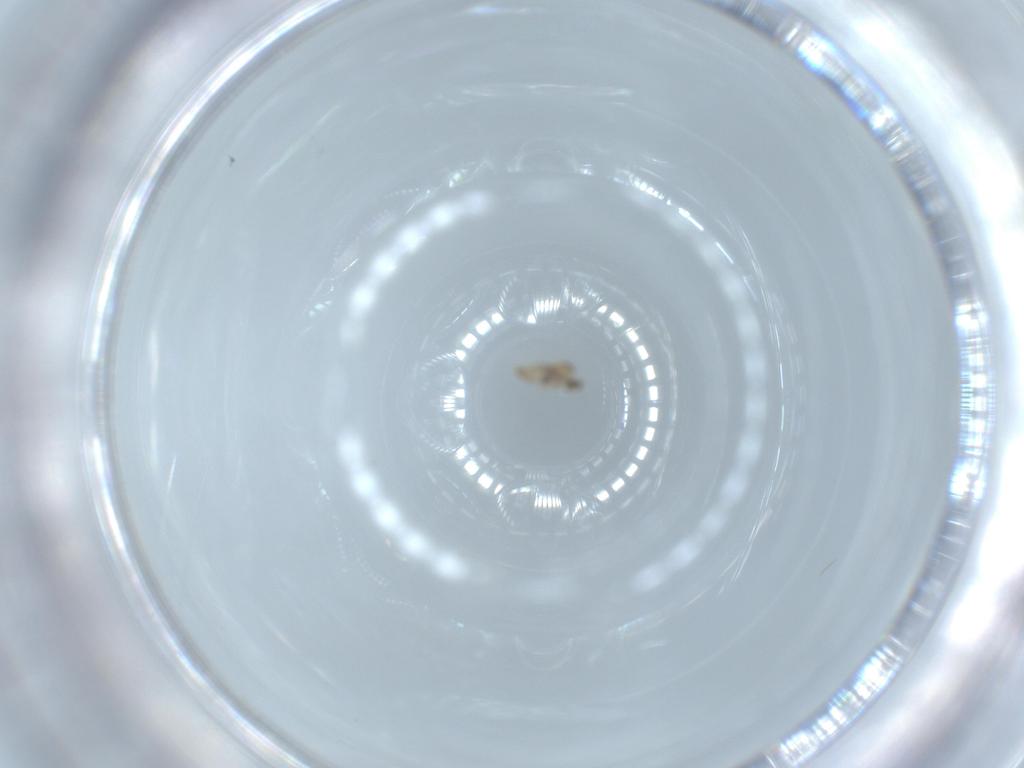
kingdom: Animalia
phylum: Arthropoda
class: Insecta
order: Diptera
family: Cecidomyiidae
